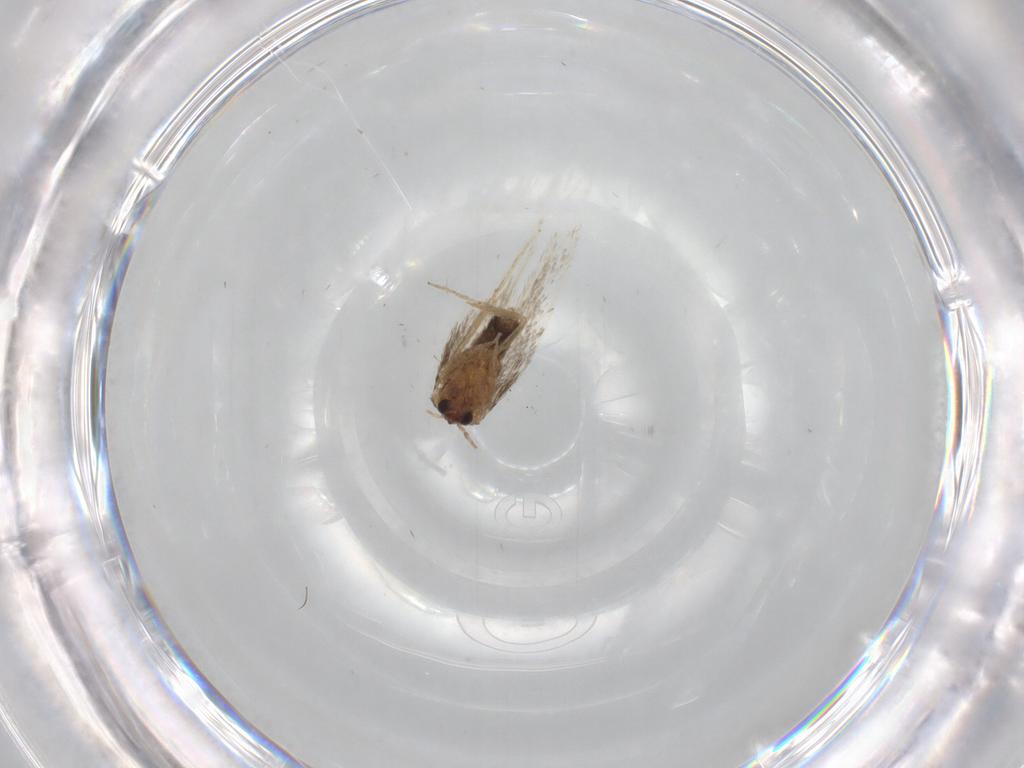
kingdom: Animalia
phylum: Arthropoda
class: Insecta
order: Lepidoptera
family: Nepticulidae
